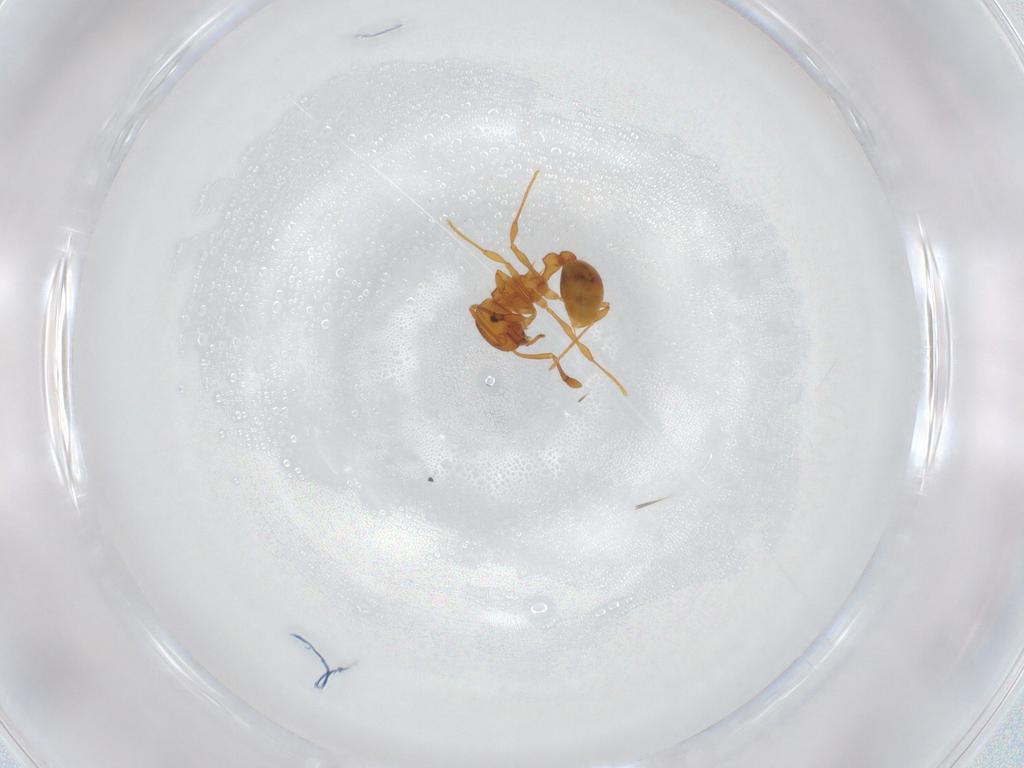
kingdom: Animalia
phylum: Arthropoda
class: Insecta
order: Hymenoptera
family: Formicidae
